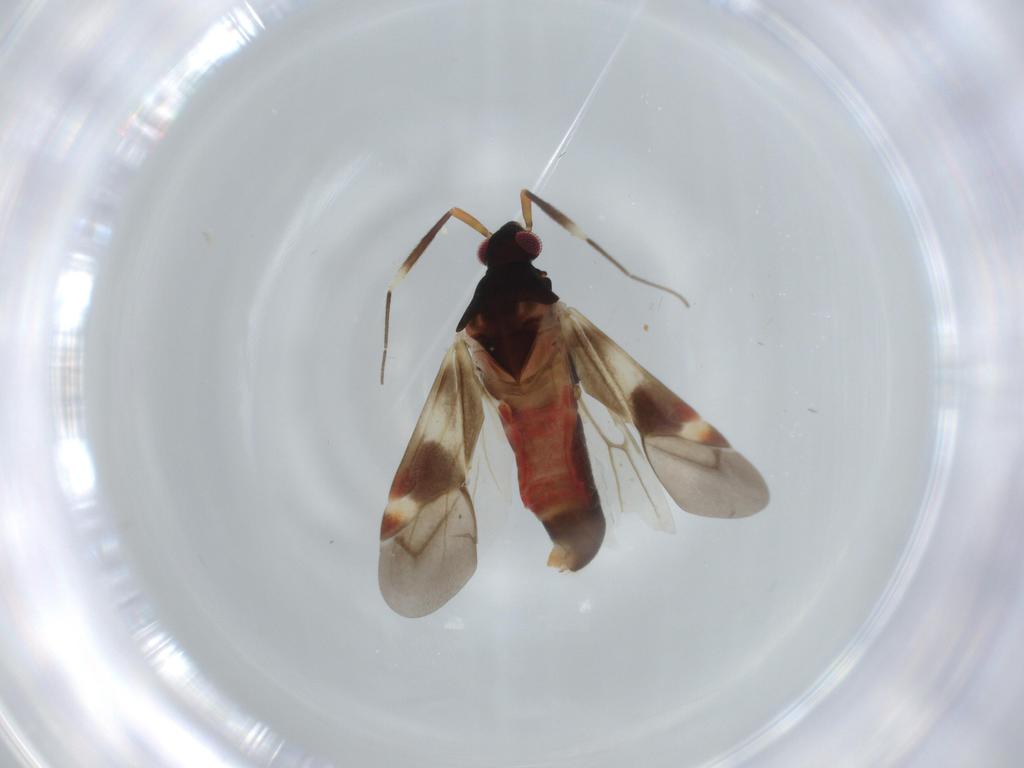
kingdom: Animalia
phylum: Arthropoda
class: Insecta
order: Hemiptera
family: Miridae
